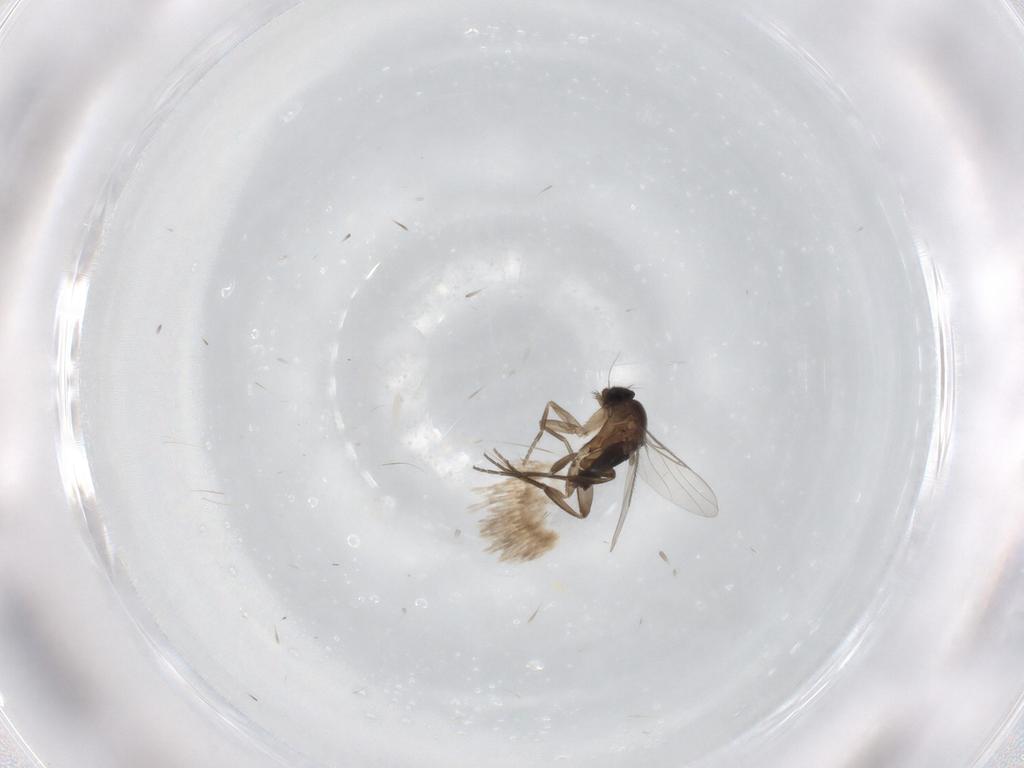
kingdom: Animalia
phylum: Arthropoda
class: Insecta
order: Diptera
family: Phoridae
